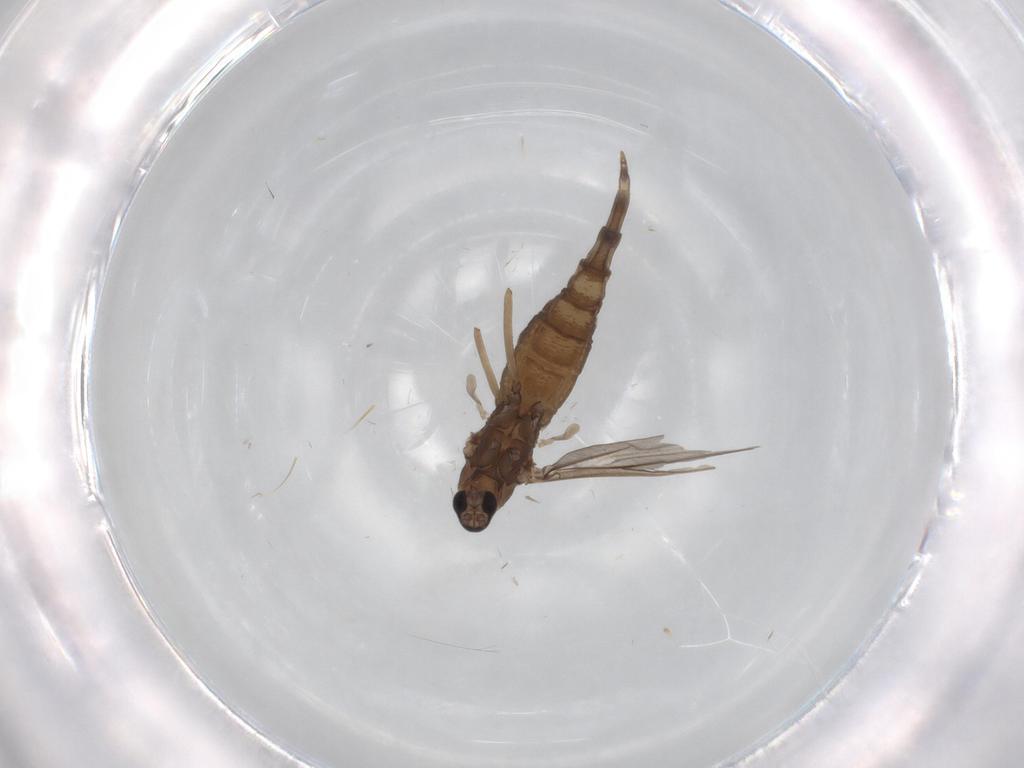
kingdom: Animalia
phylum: Arthropoda
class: Insecta
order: Diptera
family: Cecidomyiidae
